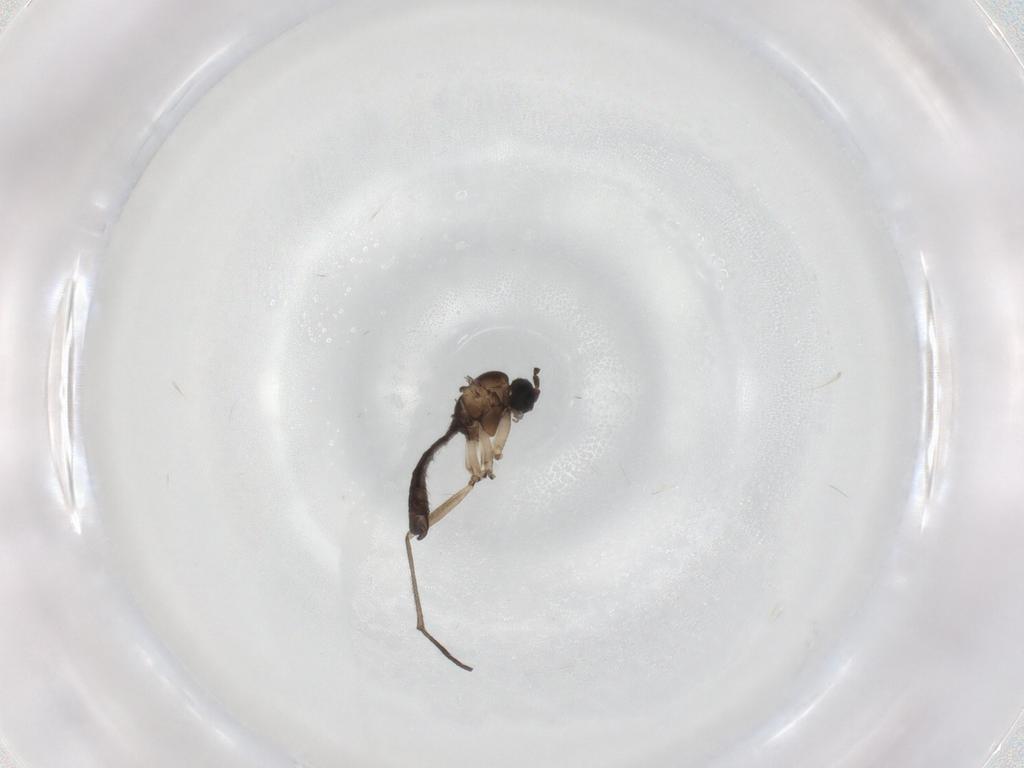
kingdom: Animalia
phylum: Arthropoda
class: Insecta
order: Diptera
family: Sciaridae
